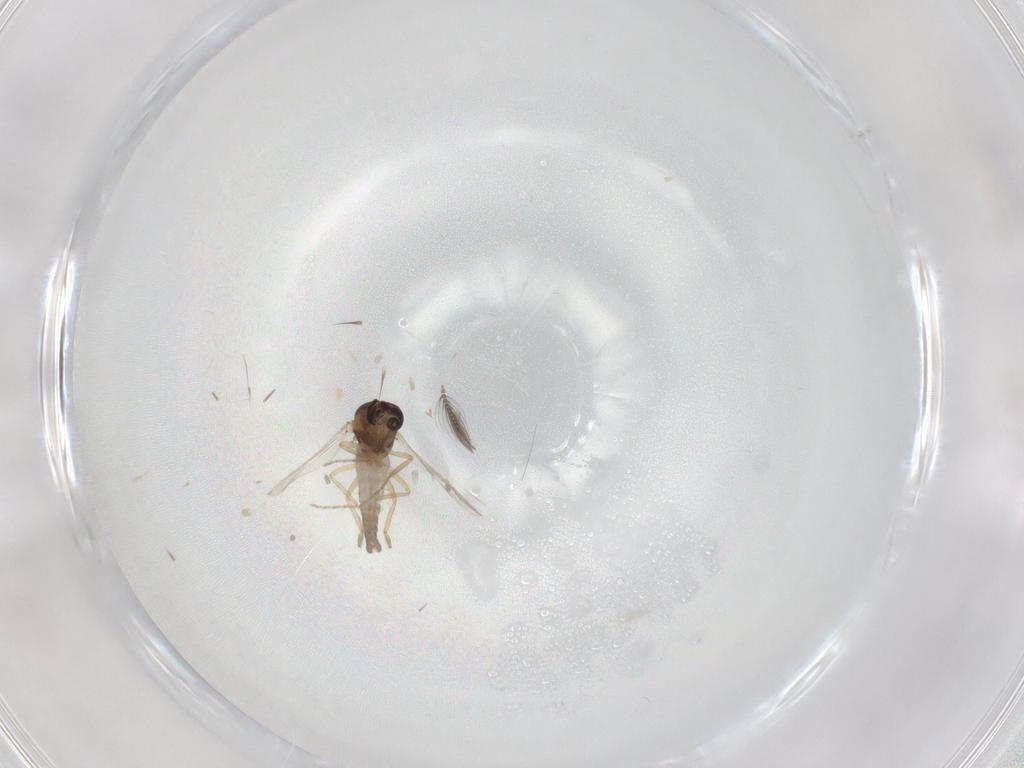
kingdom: Animalia
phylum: Arthropoda
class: Insecta
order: Diptera
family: Ceratopogonidae
